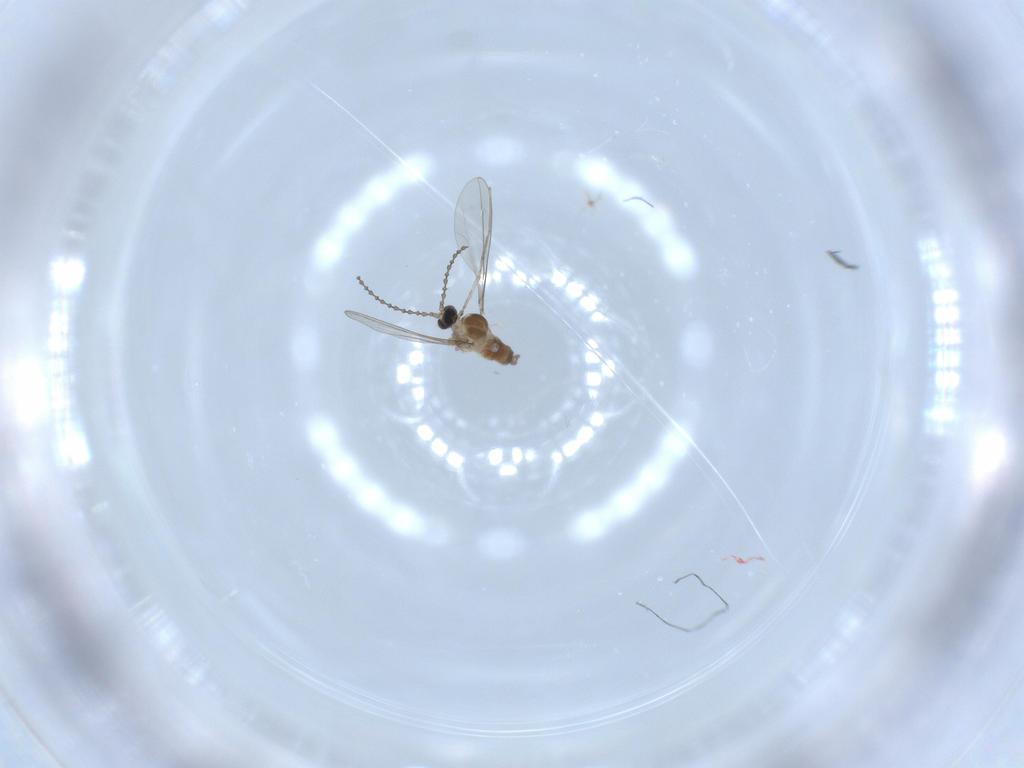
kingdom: Animalia
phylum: Arthropoda
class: Insecta
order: Diptera
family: Cecidomyiidae
